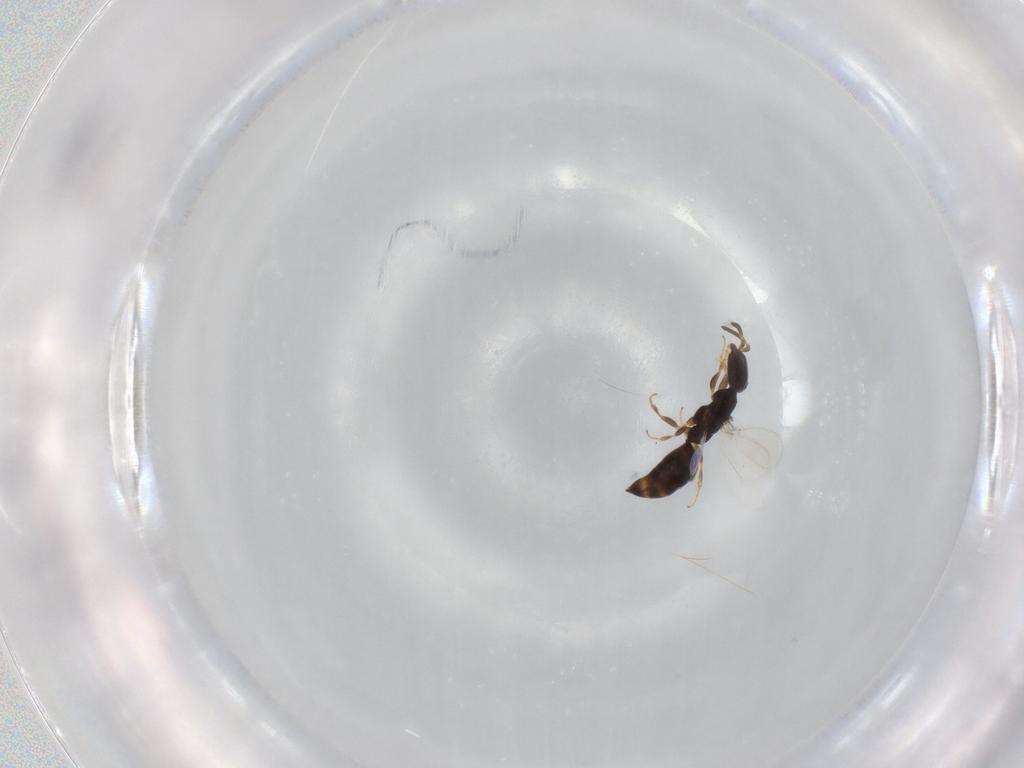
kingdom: Animalia
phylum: Arthropoda
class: Insecta
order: Hymenoptera
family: Bethylidae
